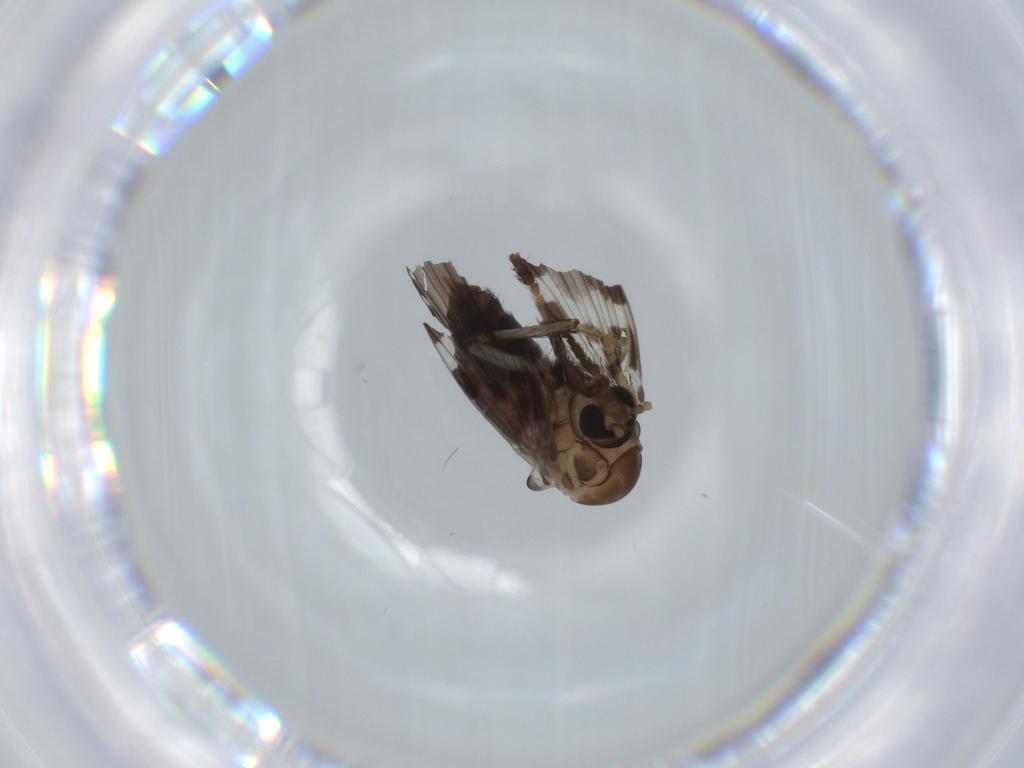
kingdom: Animalia
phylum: Arthropoda
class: Insecta
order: Diptera
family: Psychodidae
